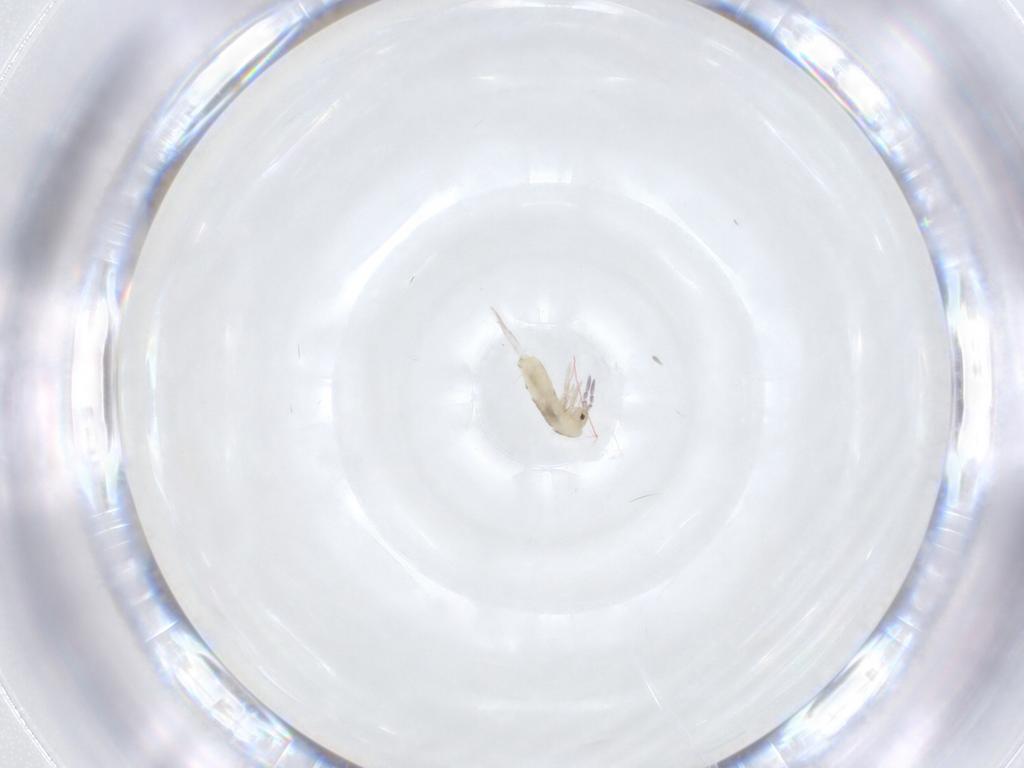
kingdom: Animalia
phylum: Arthropoda
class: Collembola
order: Entomobryomorpha
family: Entomobryidae
